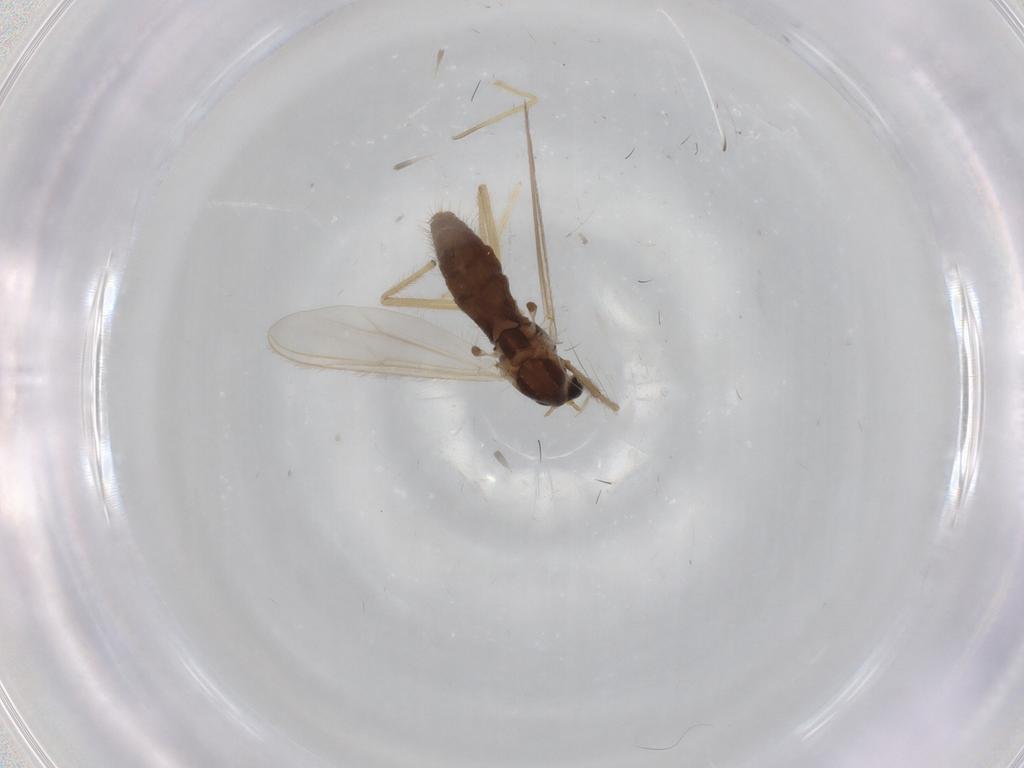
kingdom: Animalia
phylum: Arthropoda
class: Insecta
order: Diptera
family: Chironomidae
